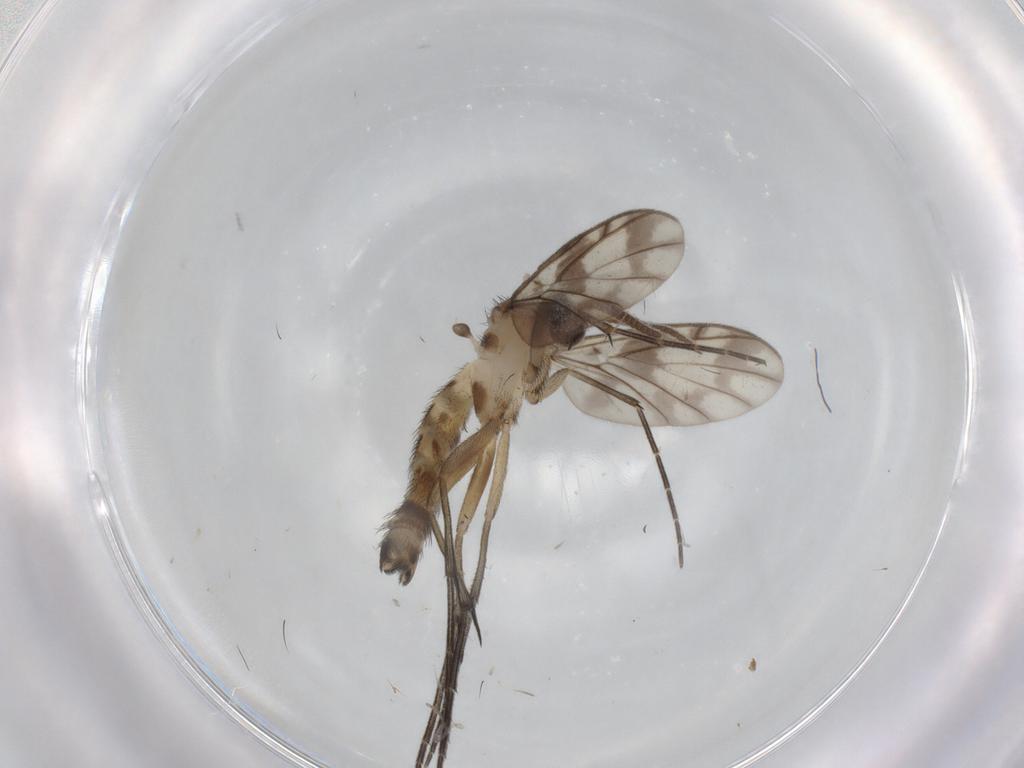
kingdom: Animalia
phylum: Arthropoda
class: Insecta
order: Diptera
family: Keroplatidae
